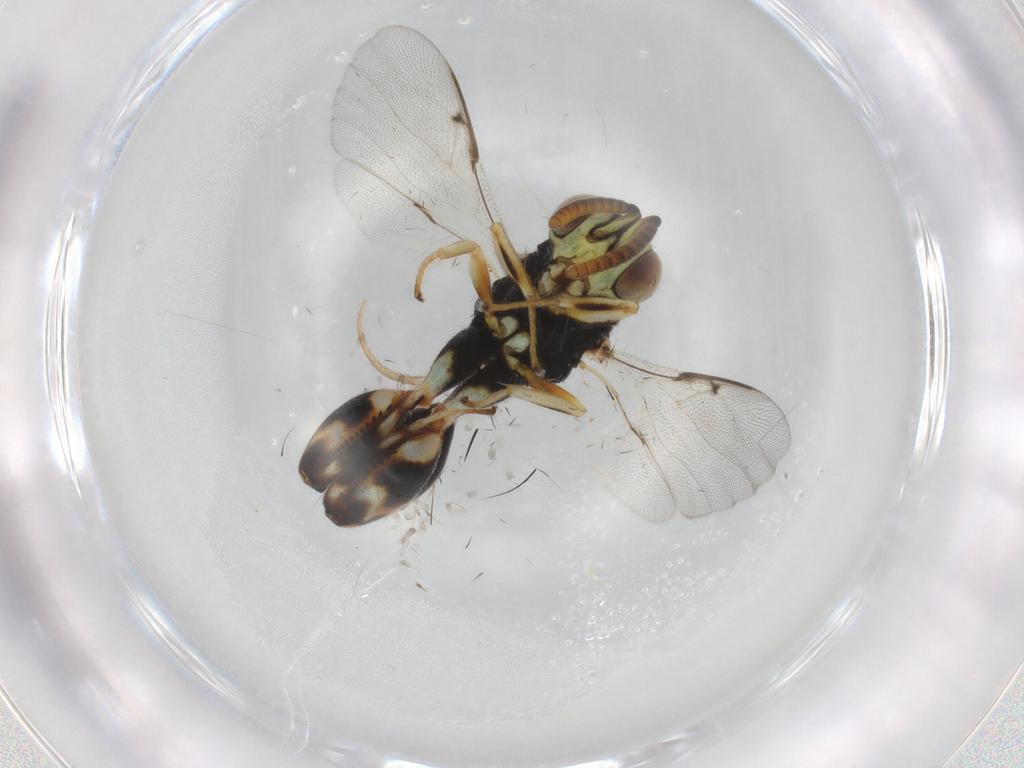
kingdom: Animalia
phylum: Arthropoda
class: Insecta
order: Hymenoptera
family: Chalcididae
